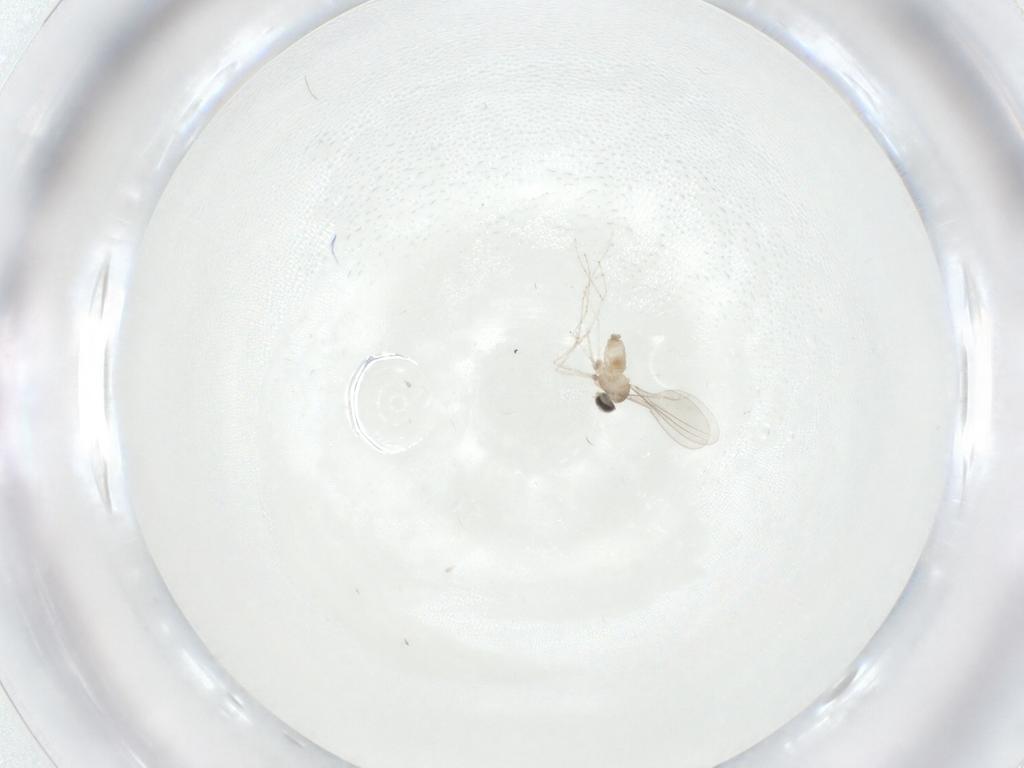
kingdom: Animalia
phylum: Arthropoda
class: Insecta
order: Diptera
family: Cecidomyiidae
